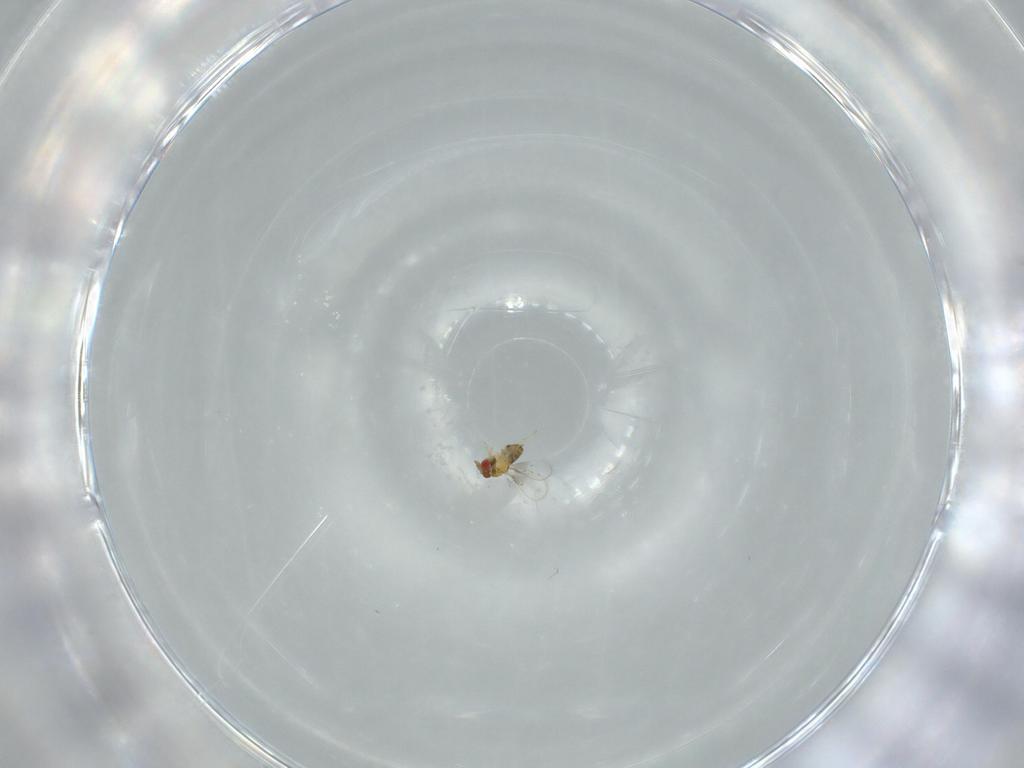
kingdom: Animalia
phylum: Arthropoda
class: Insecta
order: Hymenoptera
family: Trichogrammatidae
